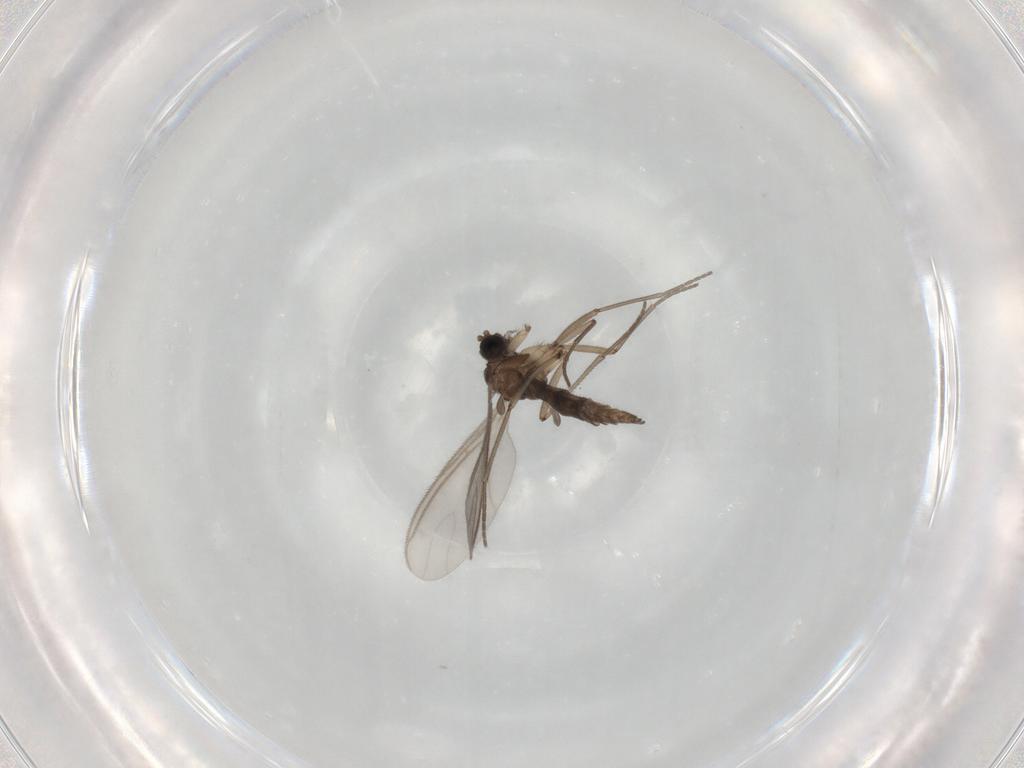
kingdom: Animalia
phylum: Arthropoda
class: Insecta
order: Diptera
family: Sciaridae
